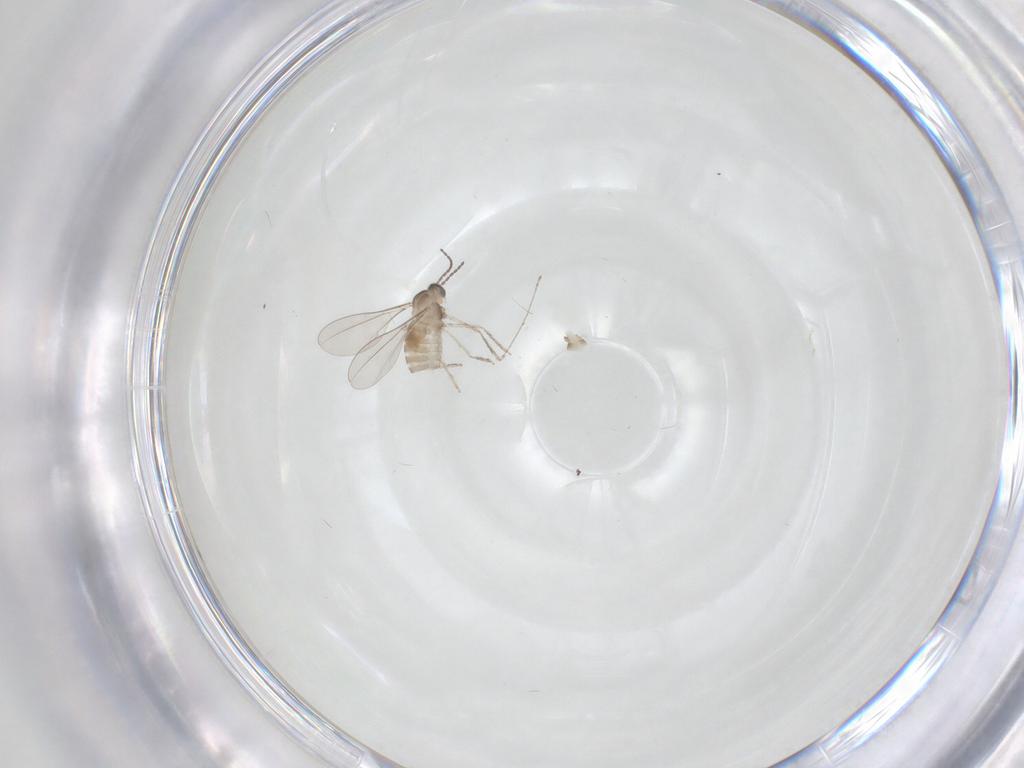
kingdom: Animalia
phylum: Arthropoda
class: Insecta
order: Diptera
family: Cecidomyiidae
